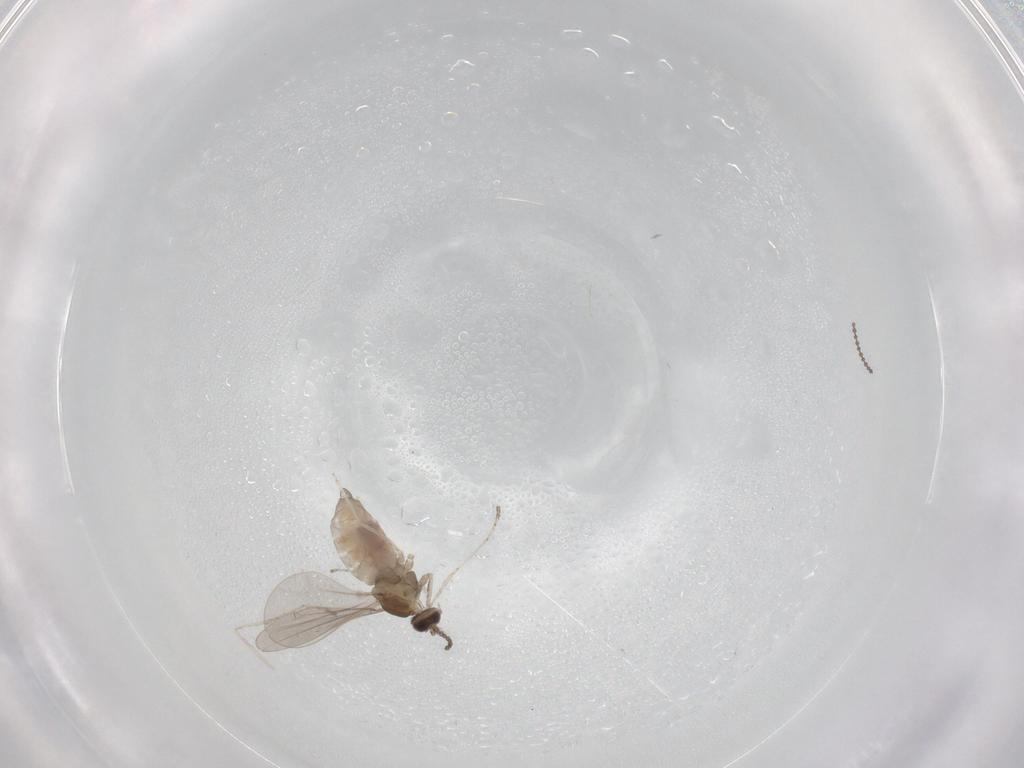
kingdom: Animalia
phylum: Arthropoda
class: Insecta
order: Diptera
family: Cecidomyiidae
